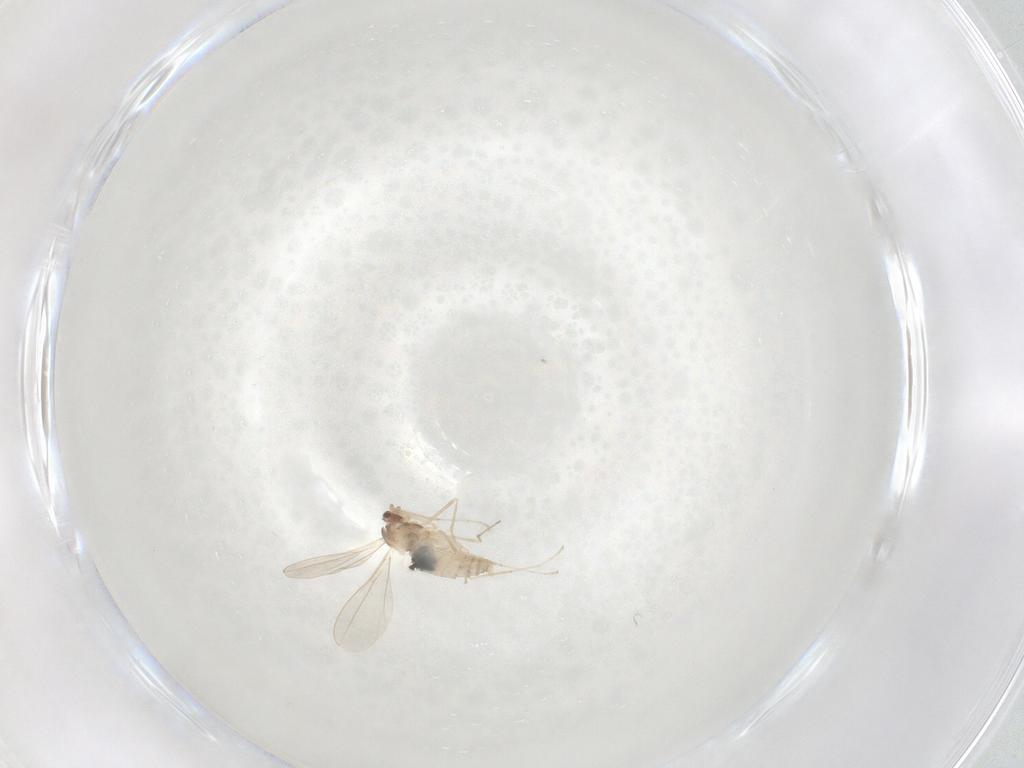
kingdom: Animalia
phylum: Arthropoda
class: Insecta
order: Diptera
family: Cecidomyiidae
